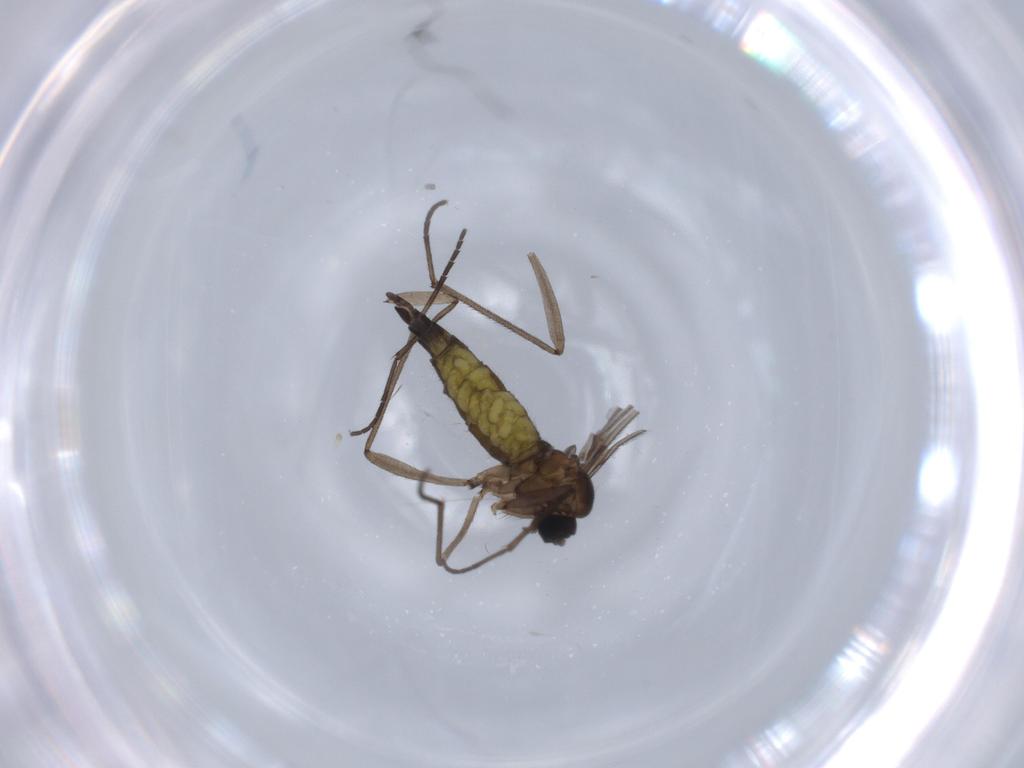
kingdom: Animalia
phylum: Arthropoda
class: Insecta
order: Diptera
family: Sciaridae
